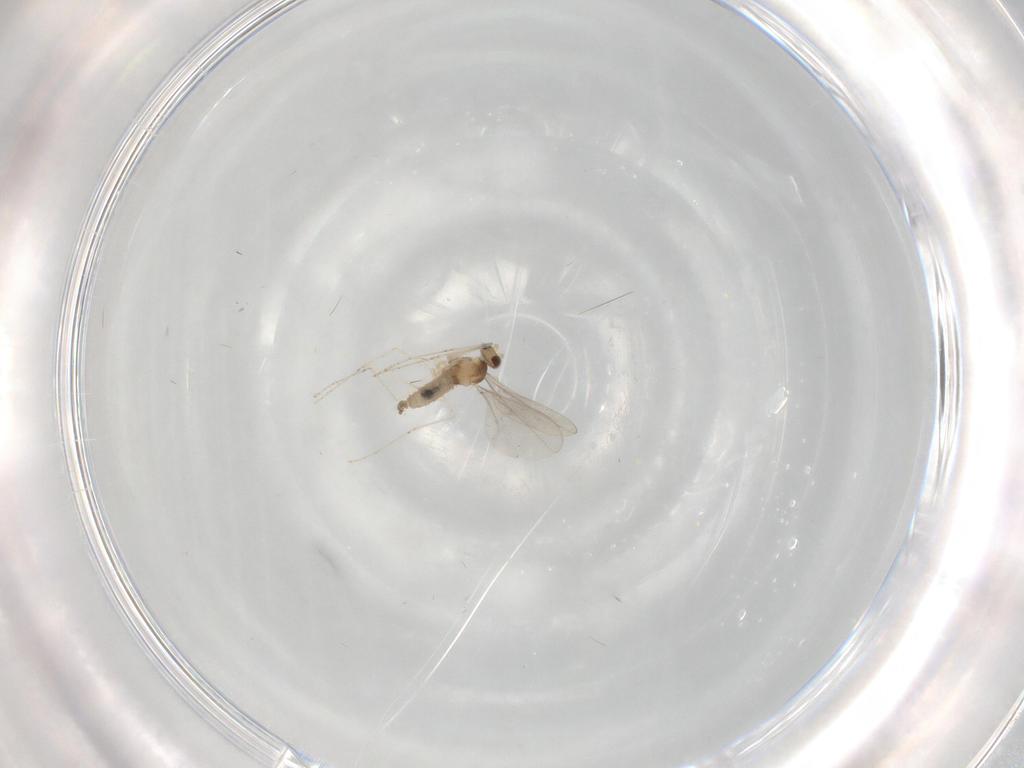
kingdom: Animalia
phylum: Arthropoda
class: Insecta
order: Diptera
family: Cecidomyiidae
